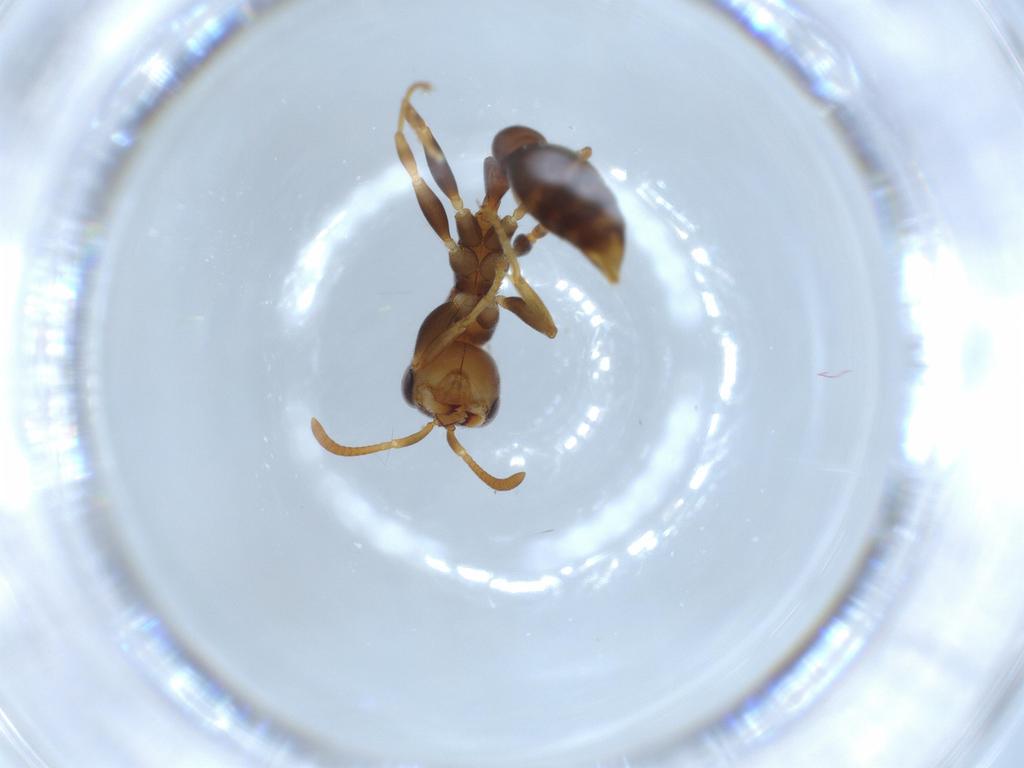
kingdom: Animalia
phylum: Arthropoda
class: Insecta
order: Hymenoptera
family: Formicidae
